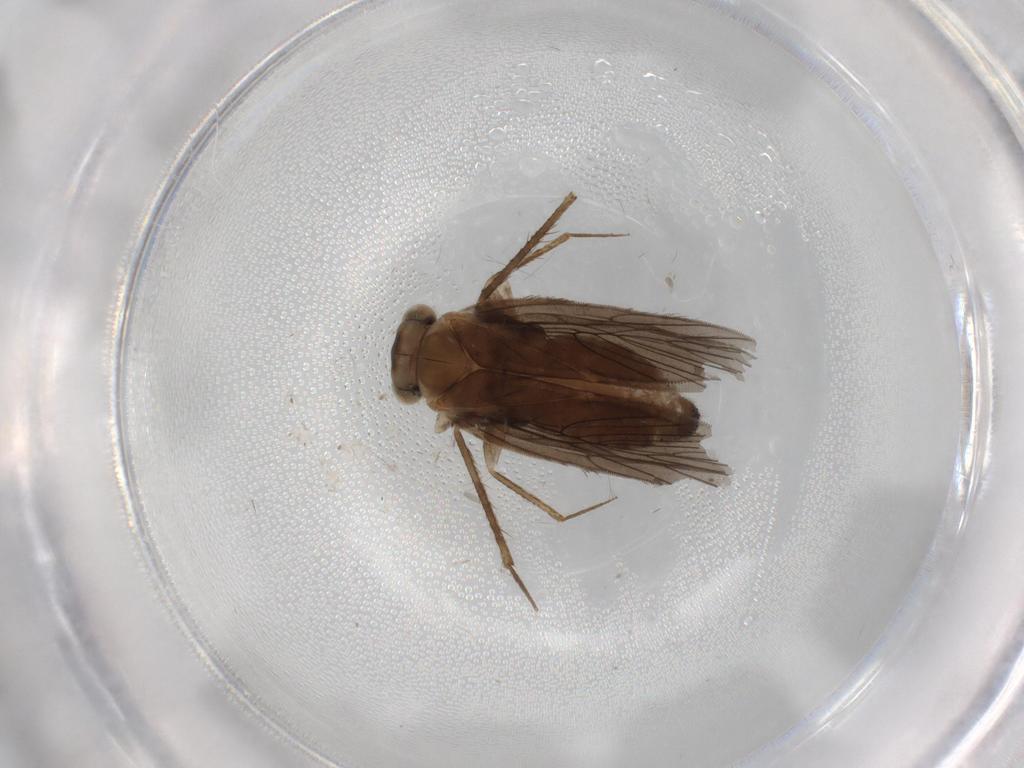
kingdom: Animalia
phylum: Arthropoda
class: Insecta
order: Psocodea
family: Lepidopsocidae
